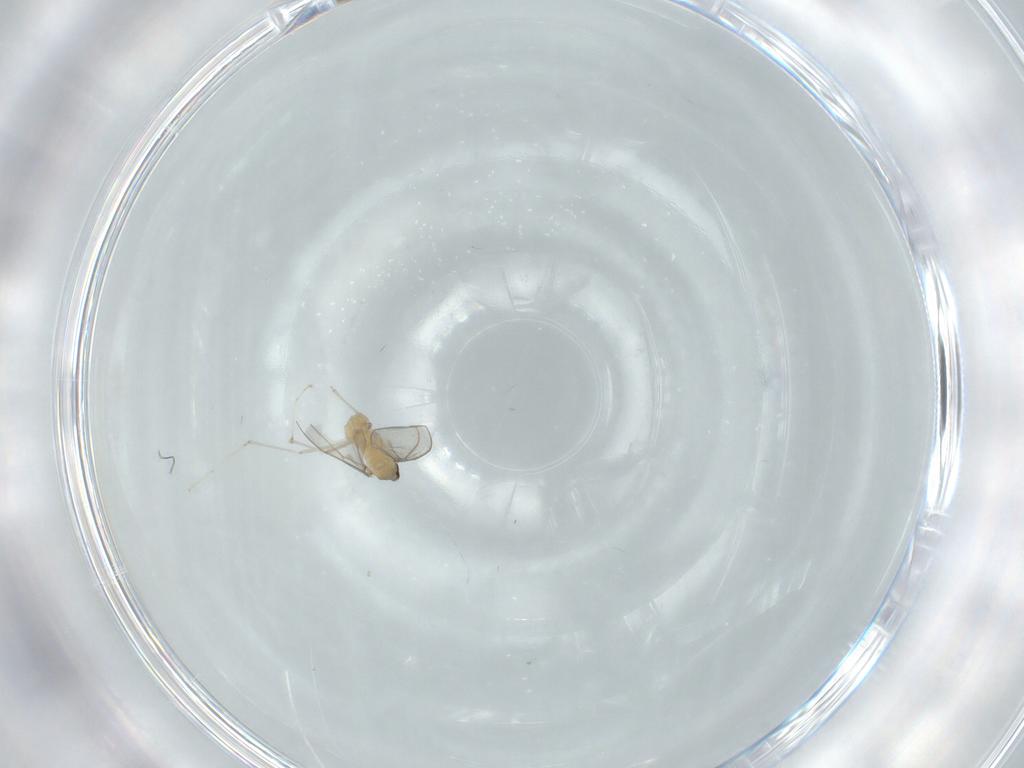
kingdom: Animalia
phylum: Arthropoda
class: Insecta
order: Diptera
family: Cecidomyiidae
